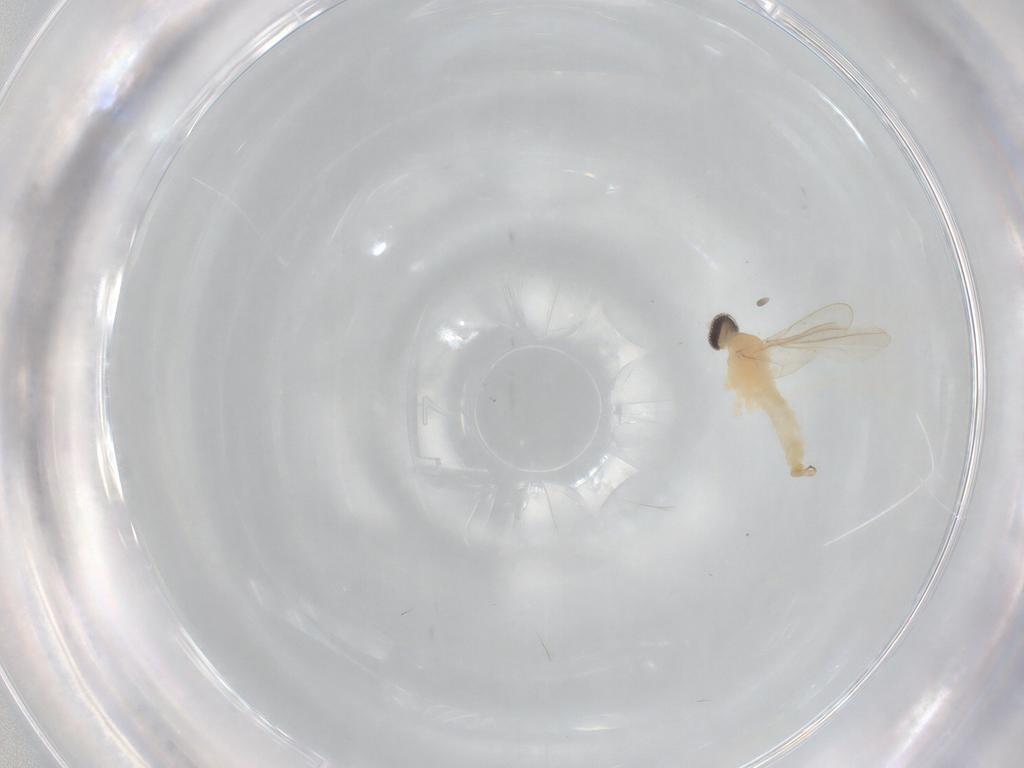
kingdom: Animalia
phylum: Arthropoda
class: Insecta
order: Diptera
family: Cecidomyiidae
